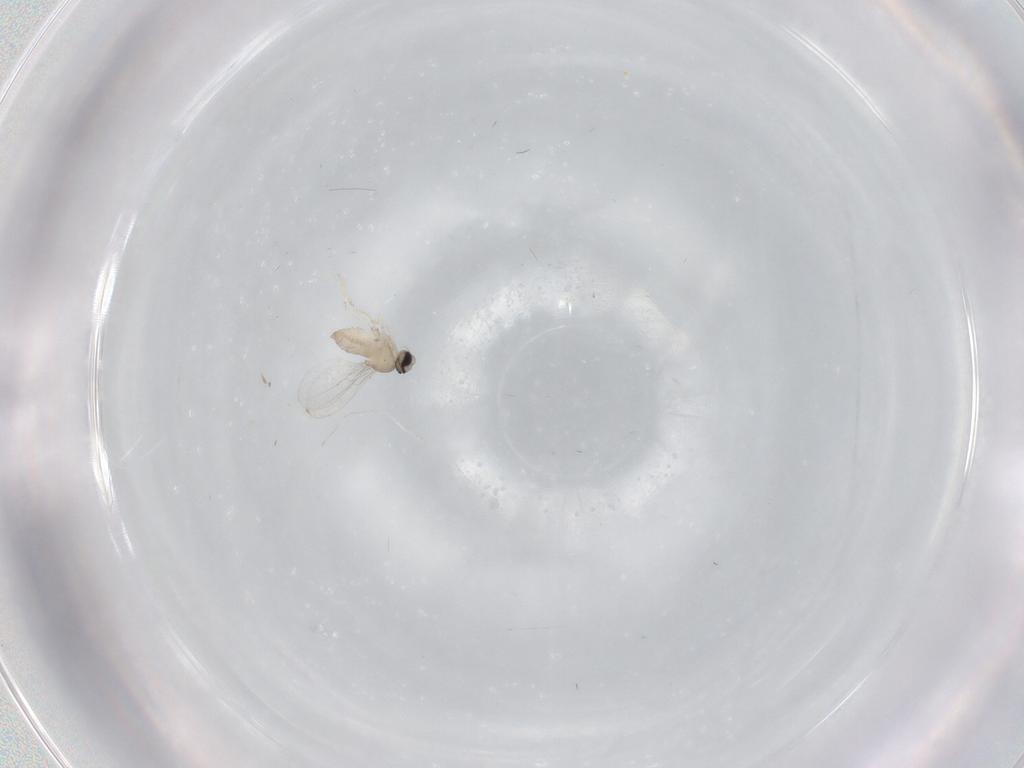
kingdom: Animalia
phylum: Arthropoda
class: Insecta
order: Diptera
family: Cecidomyiidae
